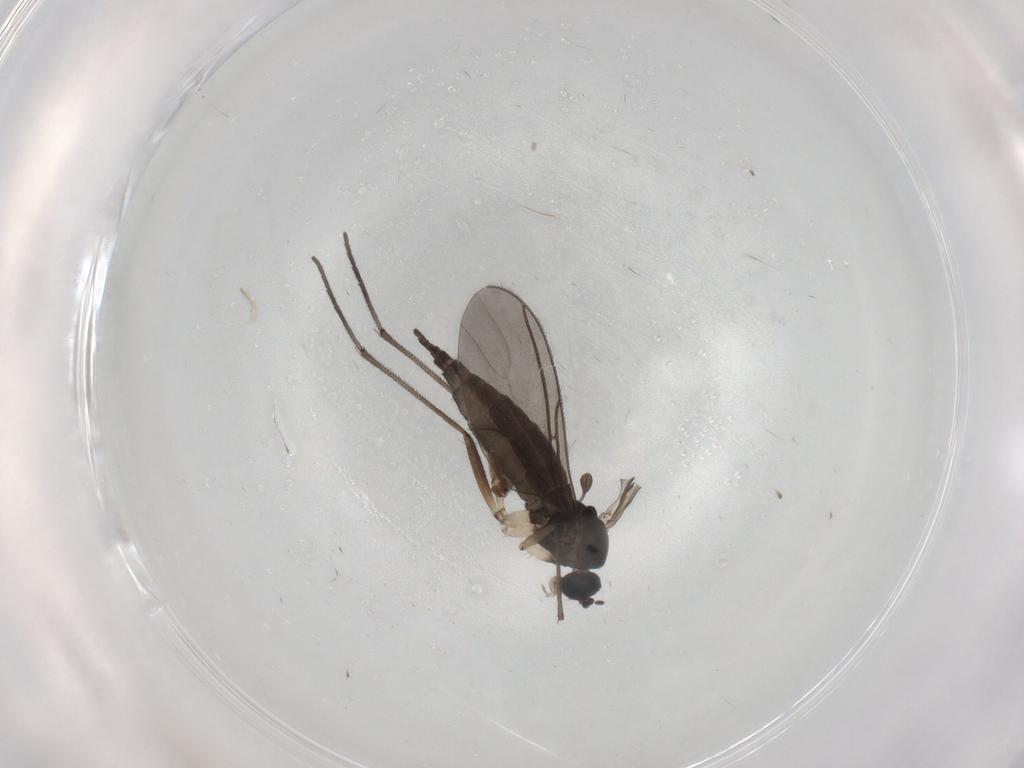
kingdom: Animalia
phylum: Arthropoda
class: Insecta
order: Diptera
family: Sciaridae
